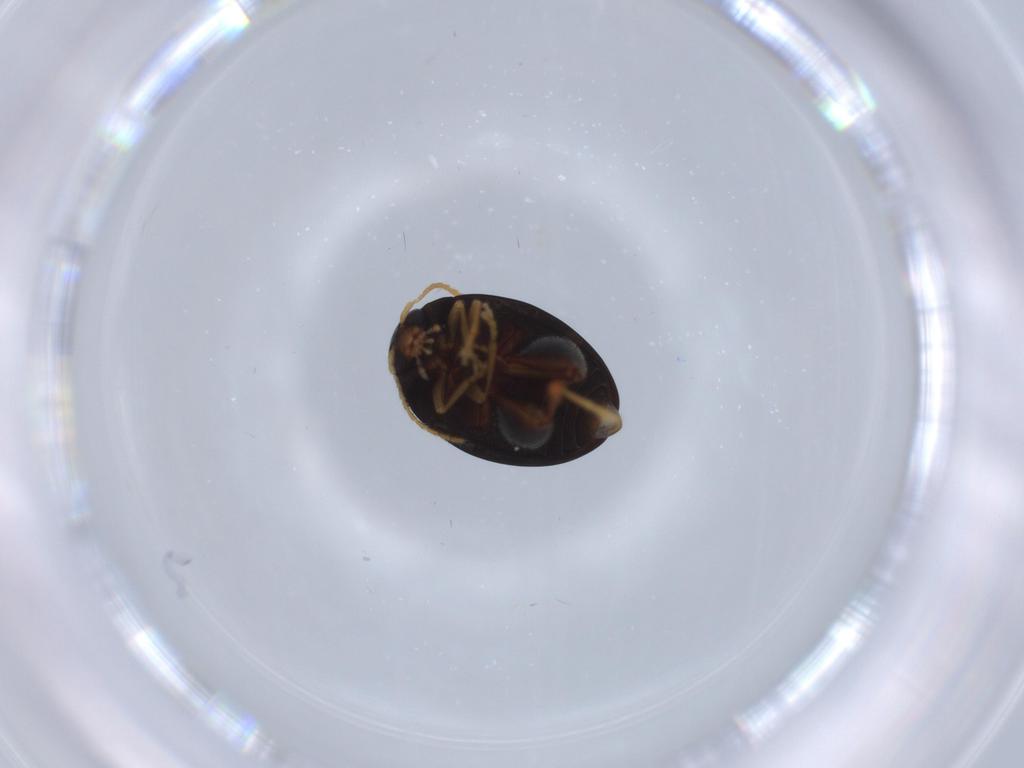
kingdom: Animalia
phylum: Arthropoda
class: Insecta
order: Coleoptera
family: Chrysomelidae
